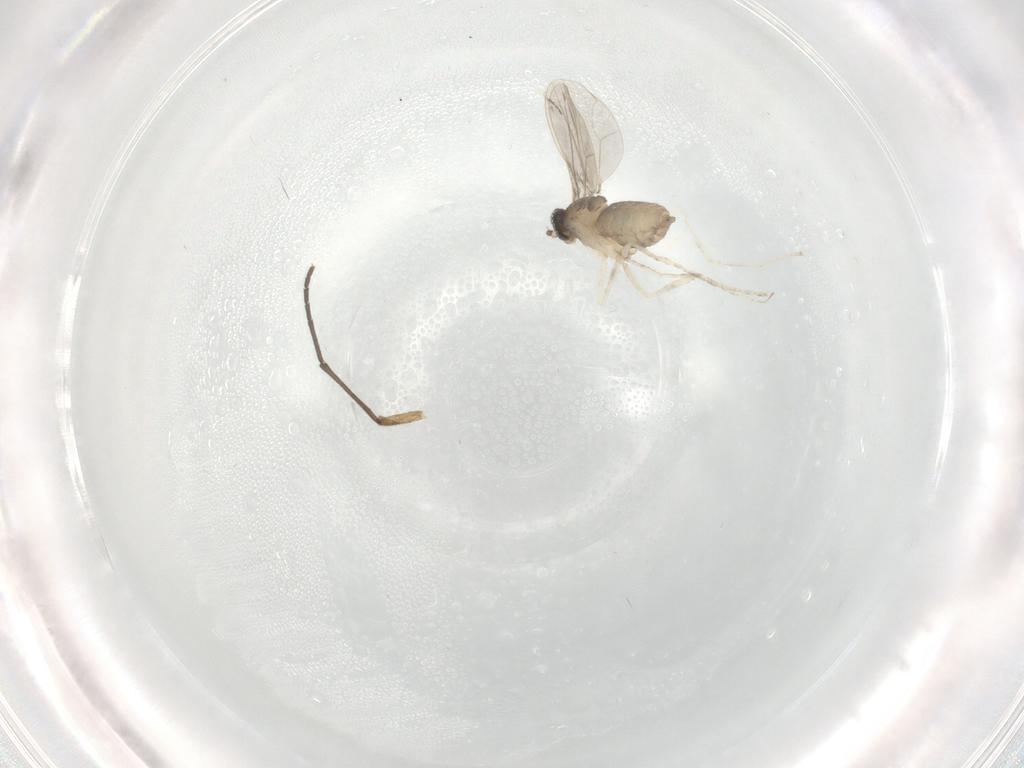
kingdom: Animalia
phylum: Arthropoda
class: Insecta
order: Diptera
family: Cecidomyiidae
